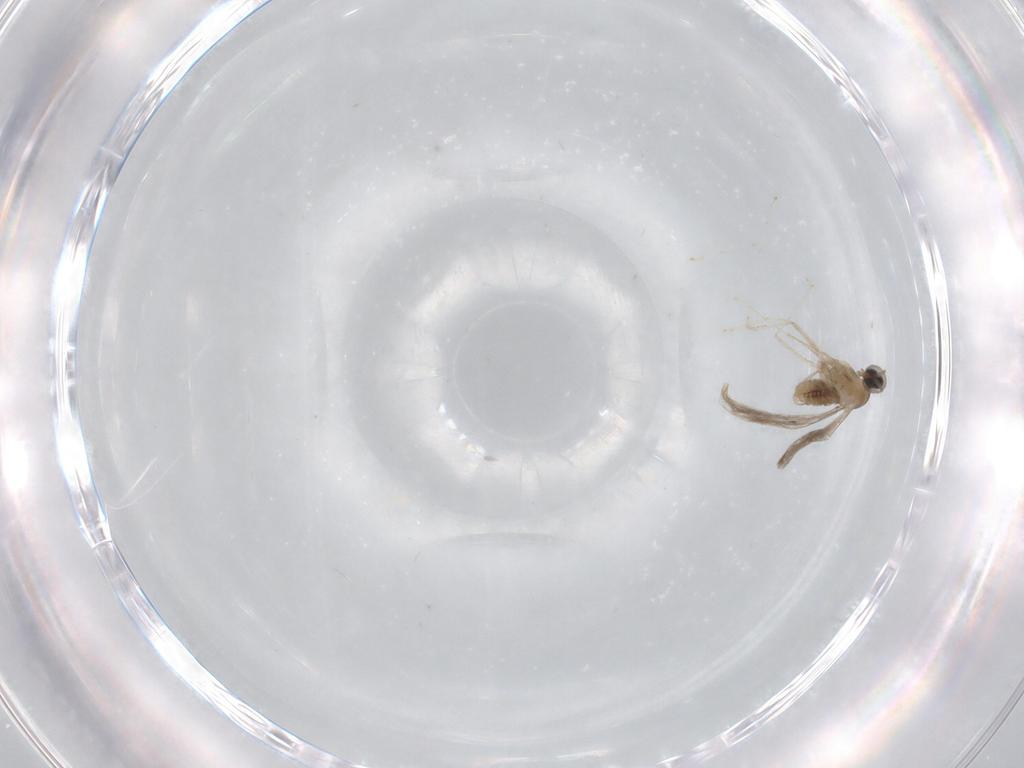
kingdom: Animalia
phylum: Arthropoda
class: Insecta
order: Diptera
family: Cecidomyiidae
